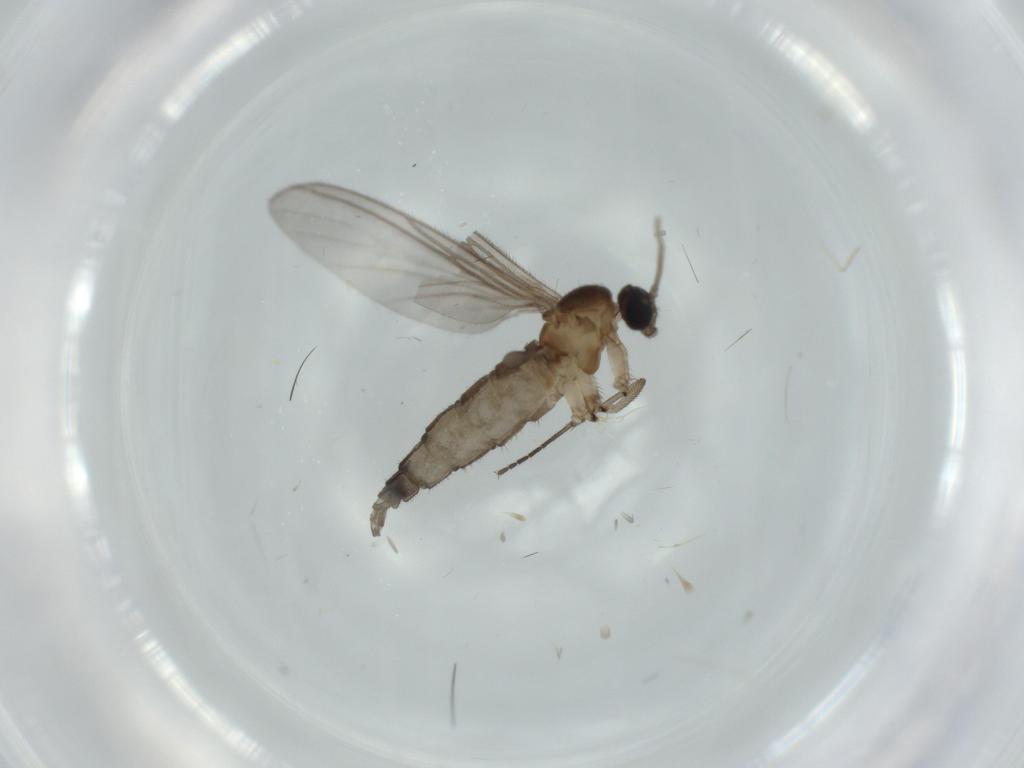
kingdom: Animalia
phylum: Arthropoda
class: Insecta
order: Diptera
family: Sciaridae
